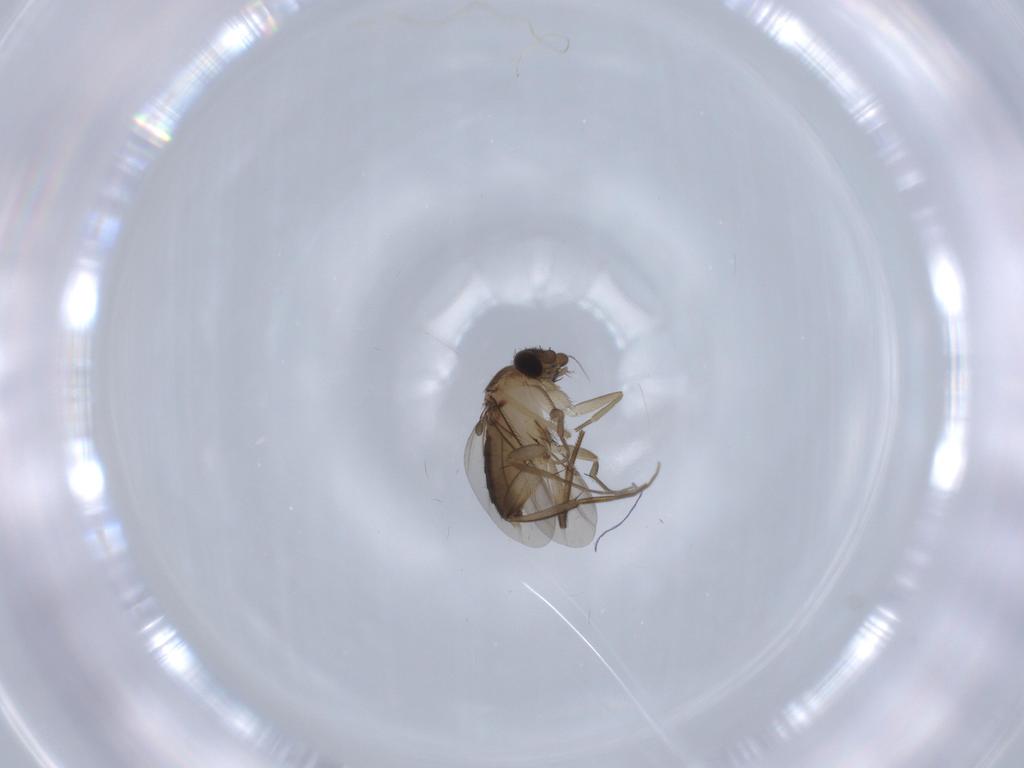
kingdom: Animalia
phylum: Arthropoda
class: Insecta
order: Diptera
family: Phoridae
